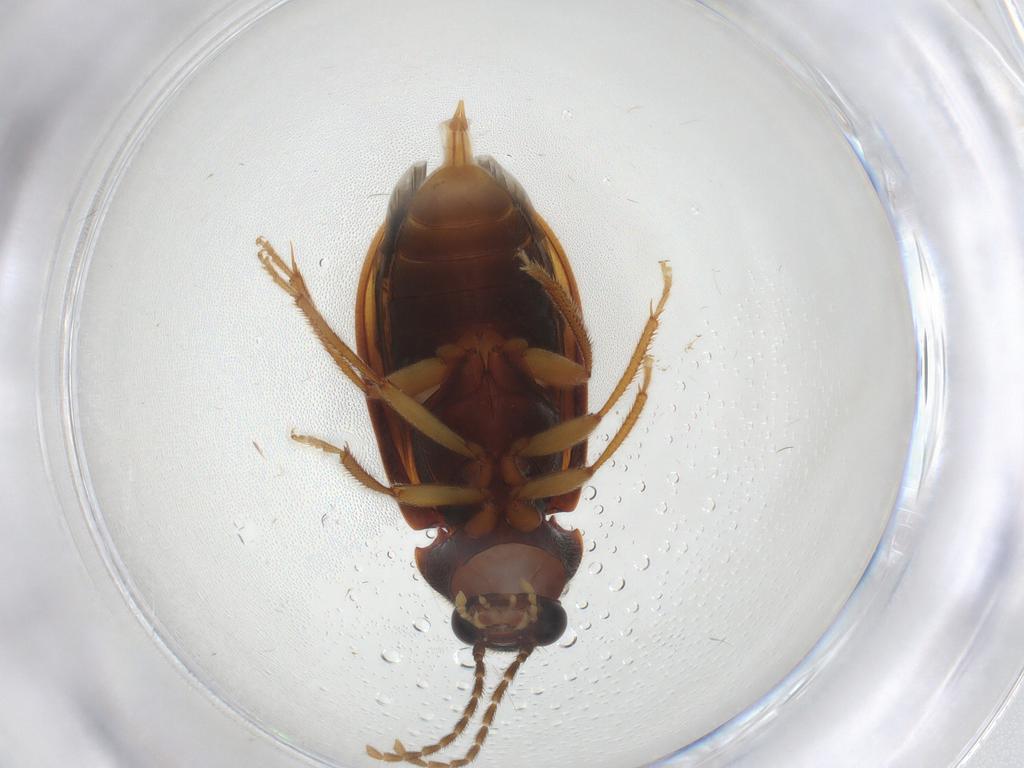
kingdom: Animalia
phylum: Arthropoda
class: Insecta
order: Coleoptera
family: Ptilodactylidae
